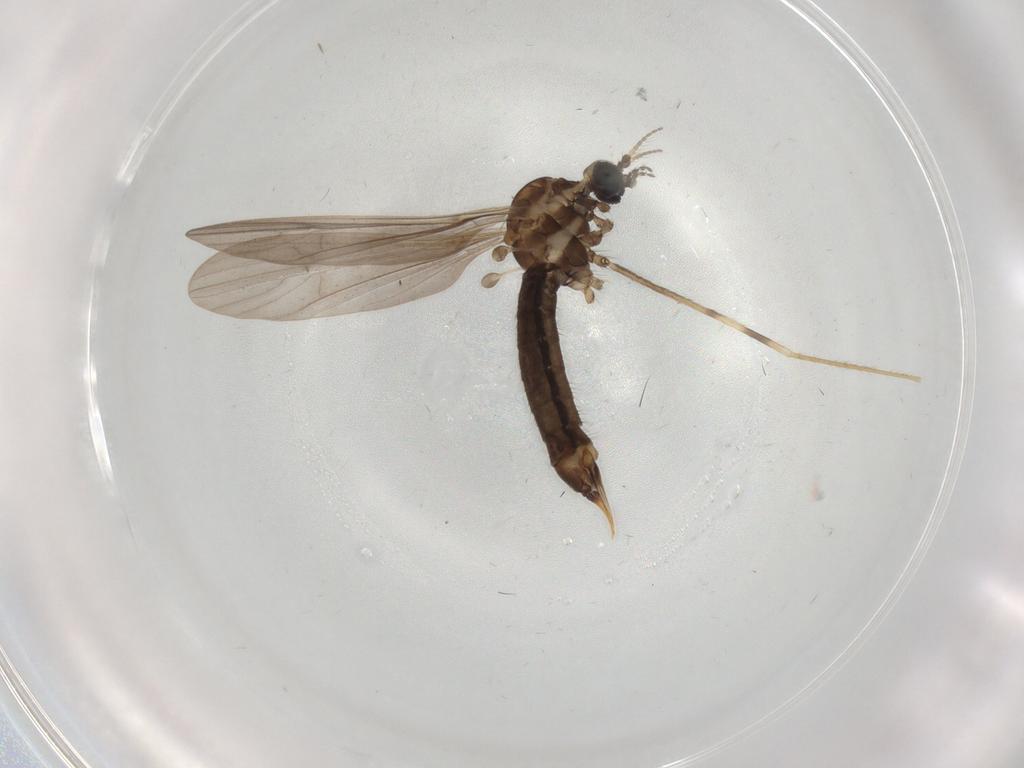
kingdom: Animalia
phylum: Arthropoda
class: Insecta
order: Diptera
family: Limoniidae
